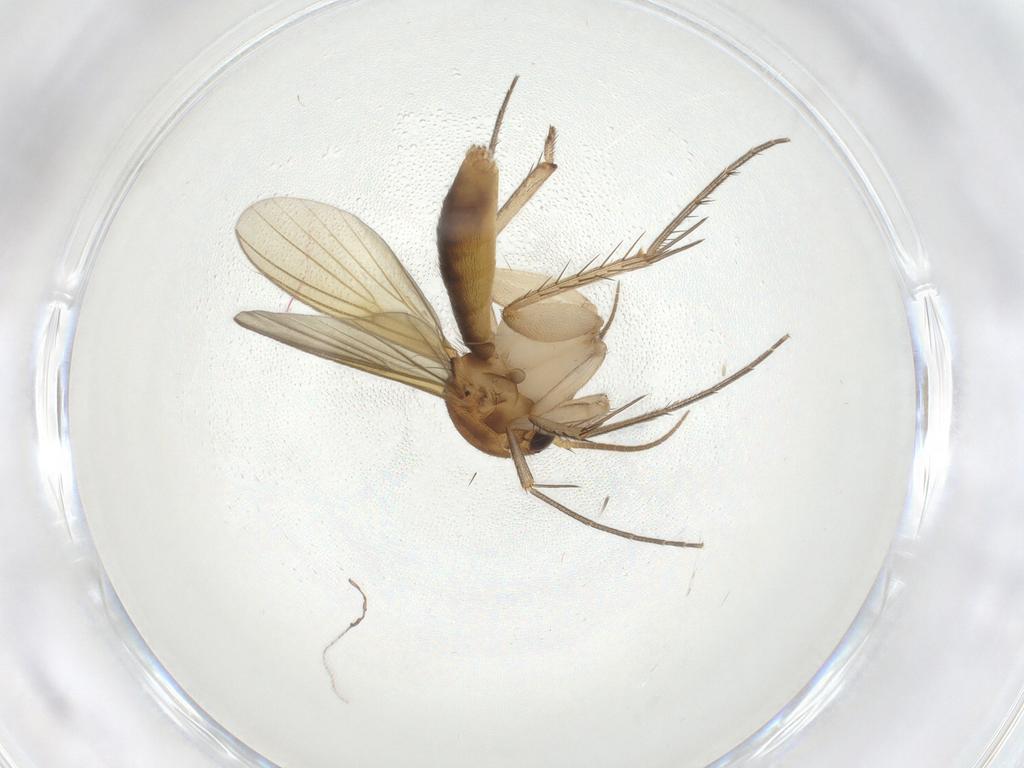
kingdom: Animalia
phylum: Arthropoda
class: Insecta
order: Diptera
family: Mycetophilidae
